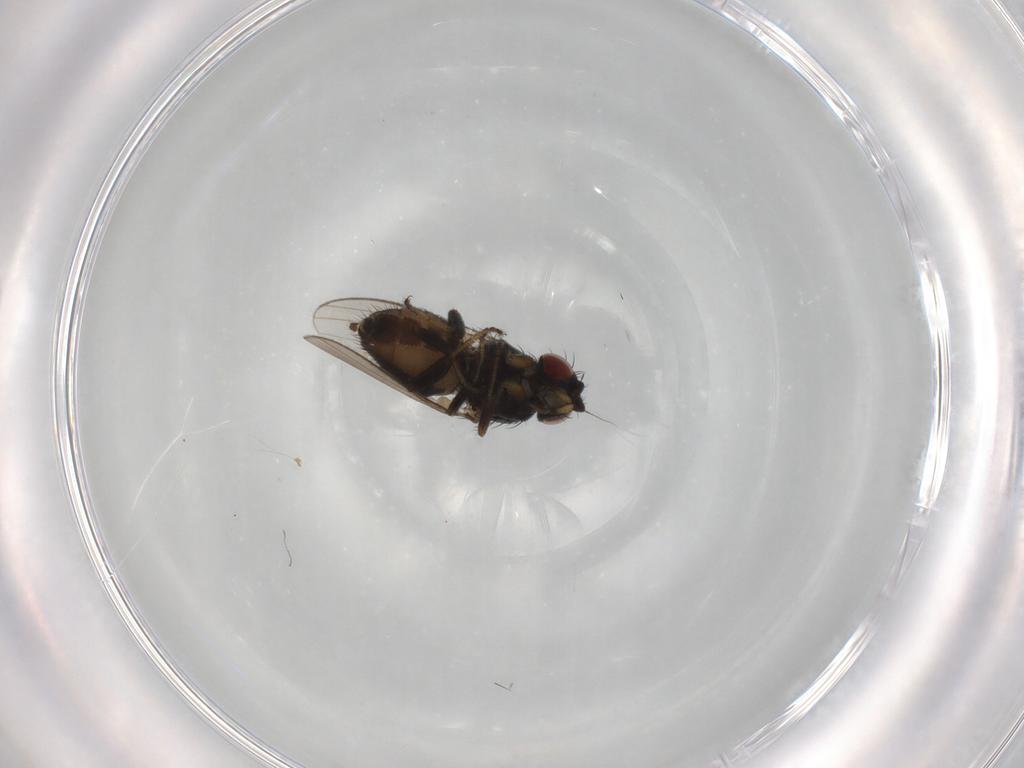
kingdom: Animalia
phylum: Arthropoda
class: Insecta
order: Diptera
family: Milichiidae
